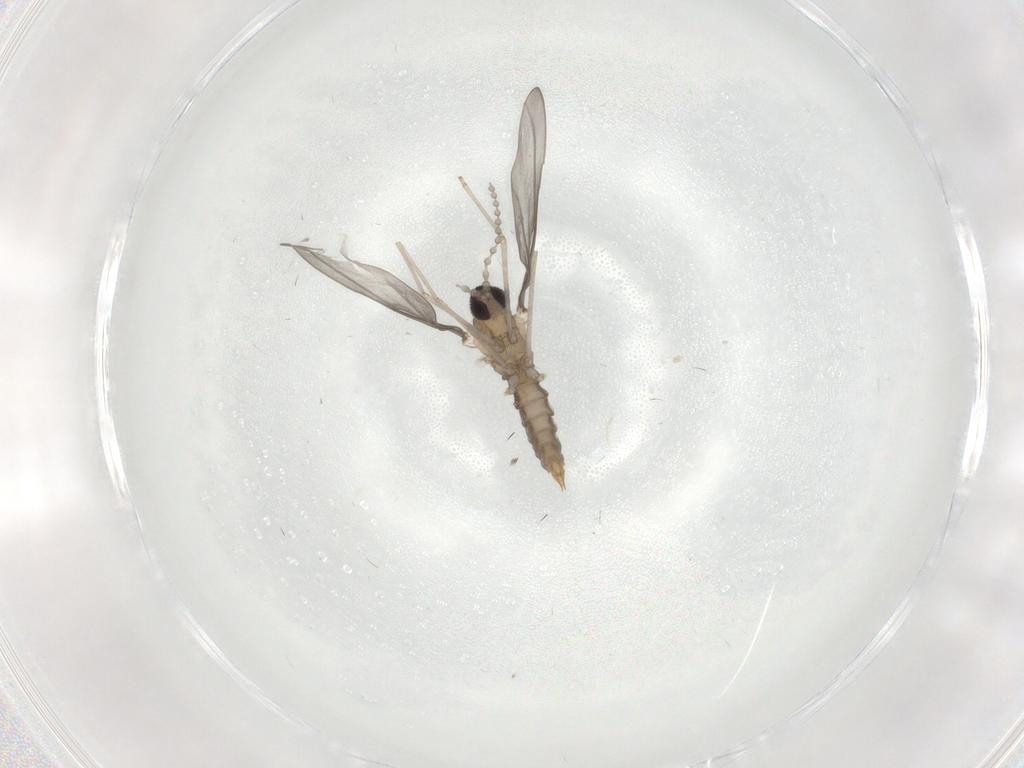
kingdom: Animalia
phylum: Arthropoda
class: Insecta
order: Diptera
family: Cecidomyiidae
